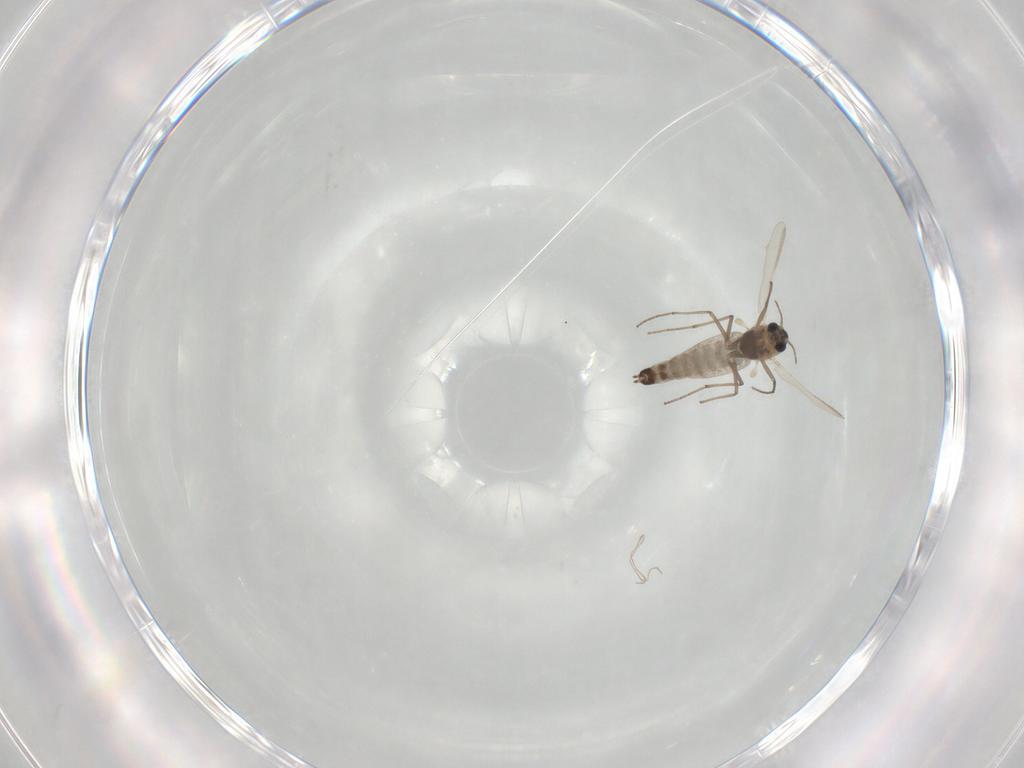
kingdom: Animalia
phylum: Arthropoda
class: Insecta
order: Diptera
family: Chironomidae
